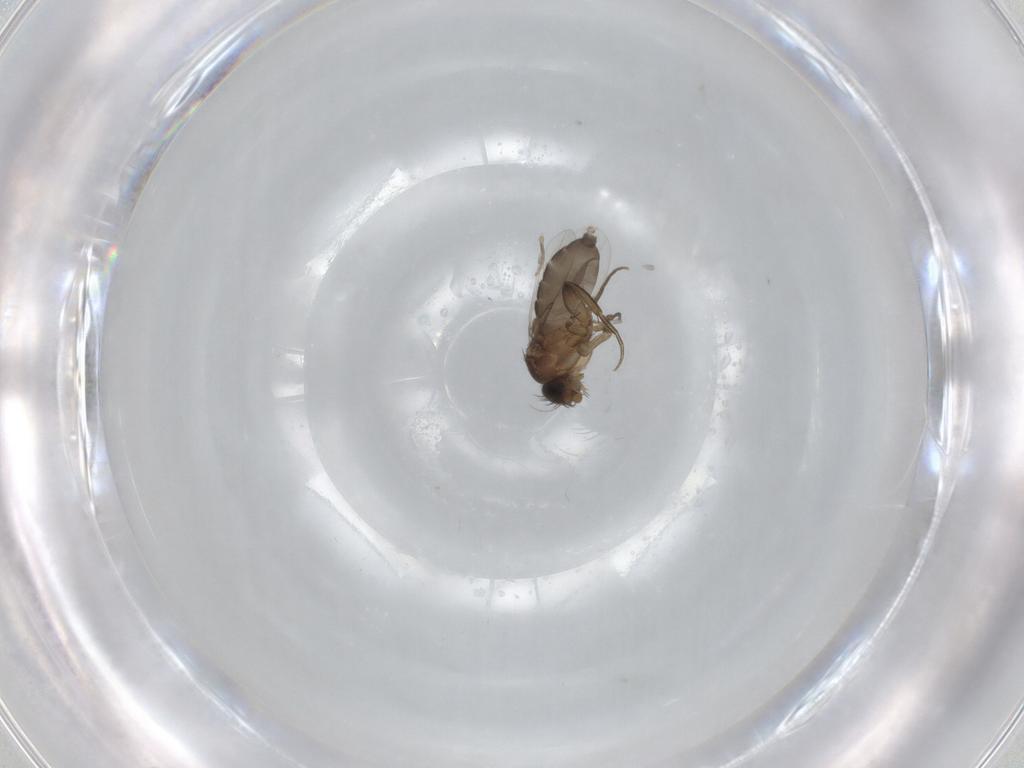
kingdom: Animalia
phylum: Arthropoda
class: Insecta
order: Diptera
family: Phoridae
